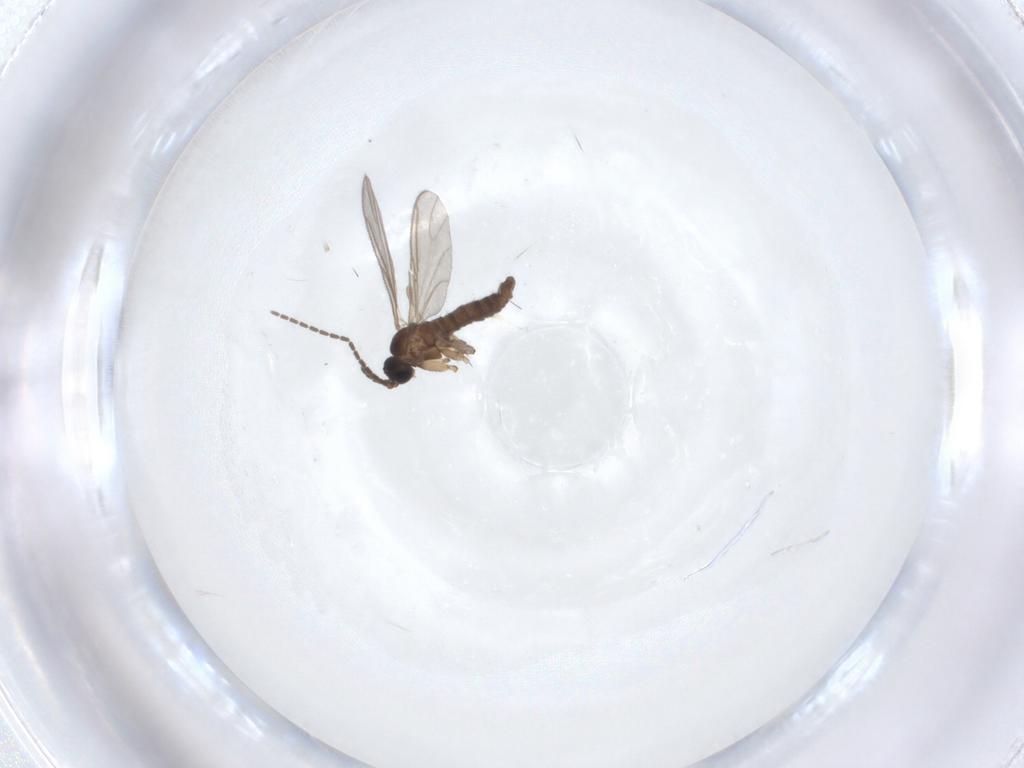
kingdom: Animalia
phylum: Arthropoda
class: Insecta
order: Diptera
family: Sciaridae
